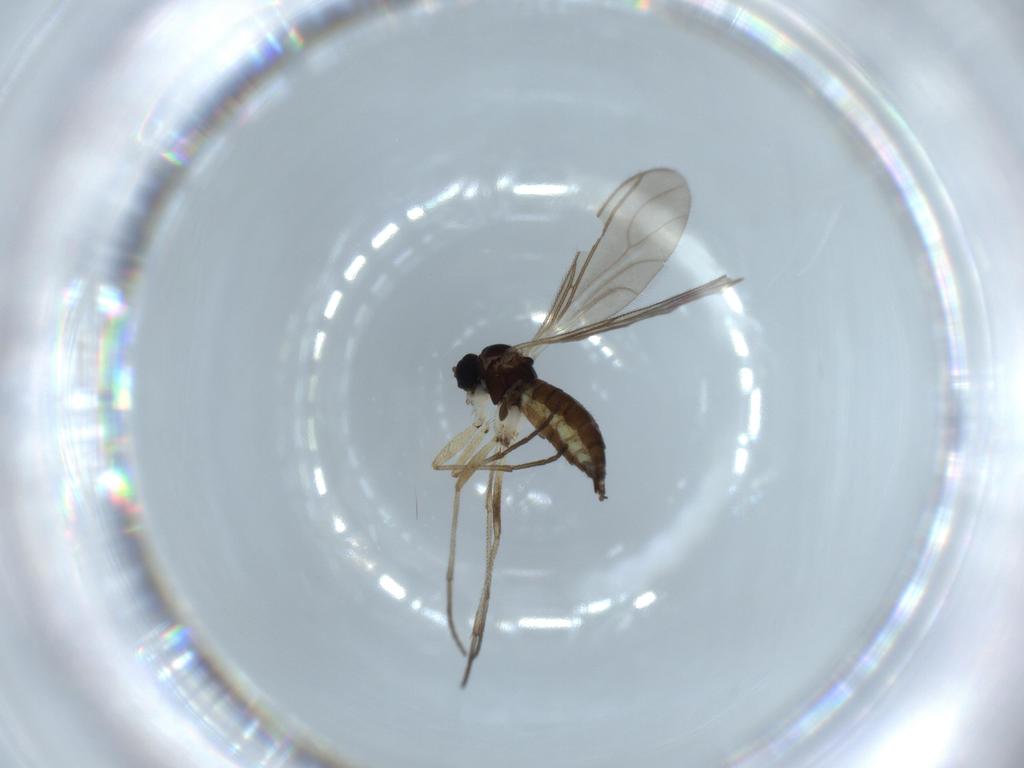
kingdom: Animalia
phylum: Arthropoda
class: Insecta
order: Diptera
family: Sciaridae
